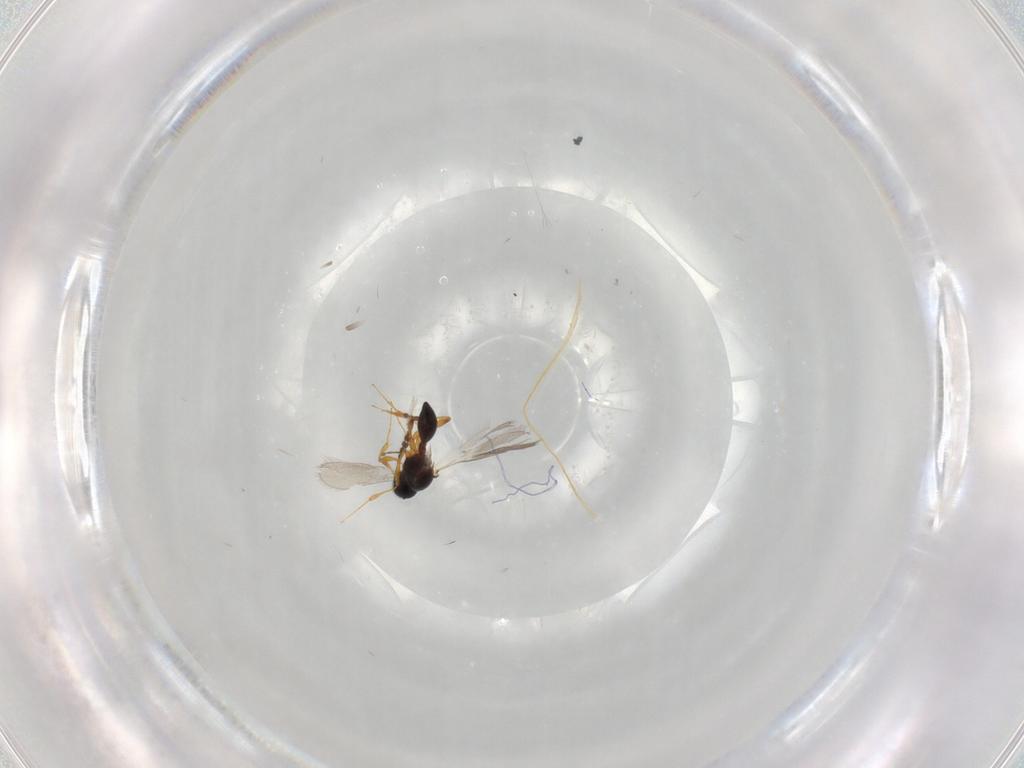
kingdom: Animalia
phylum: Arthropoda
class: Insecta
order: Hymenoptera
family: Platygastridae
